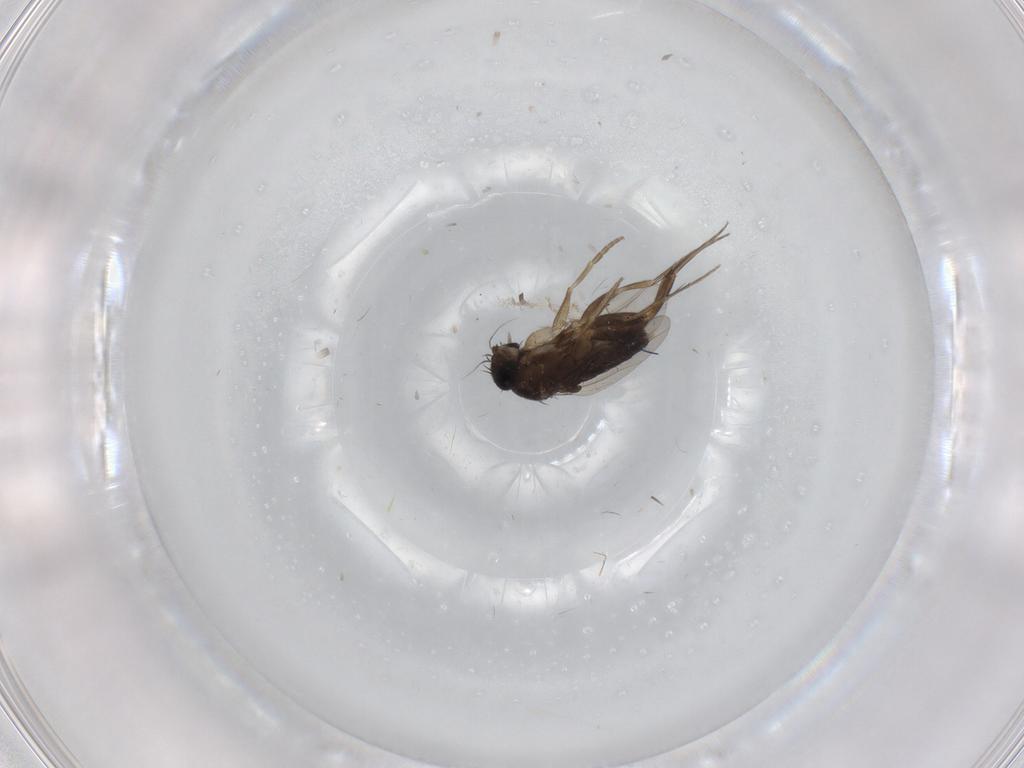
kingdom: Animalia
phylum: Arthropoda
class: Insecta
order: Diptera
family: Phoridae
